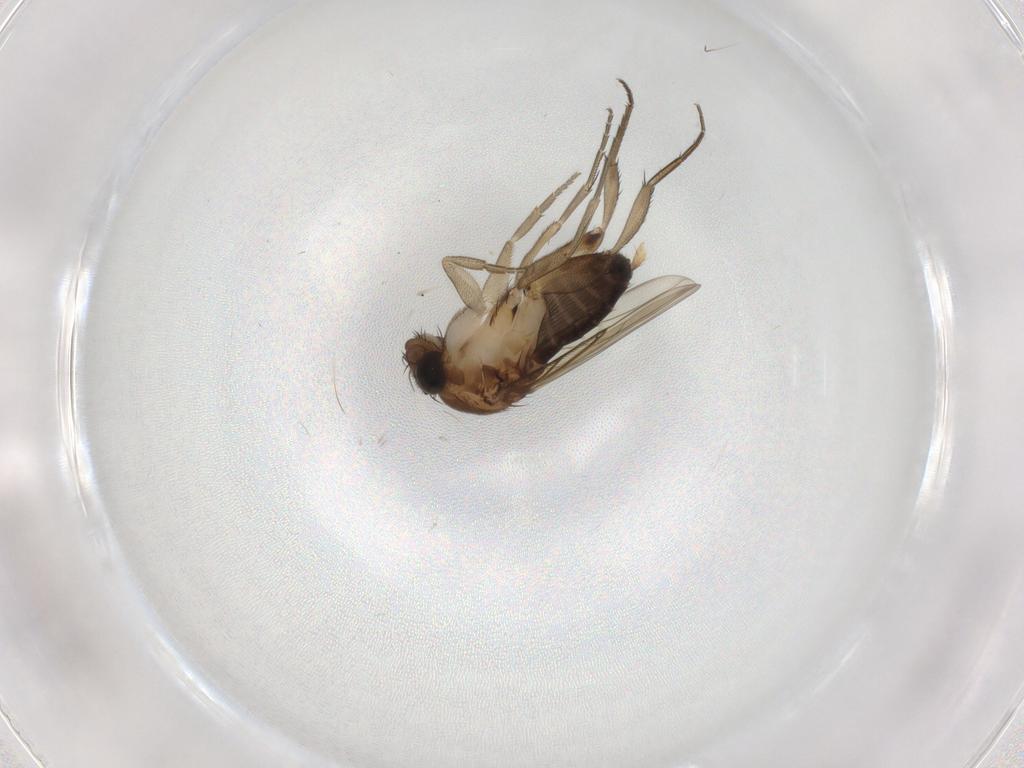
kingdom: Animalia
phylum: Arthropoda
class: Insecta
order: Diptera
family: Phoridae
